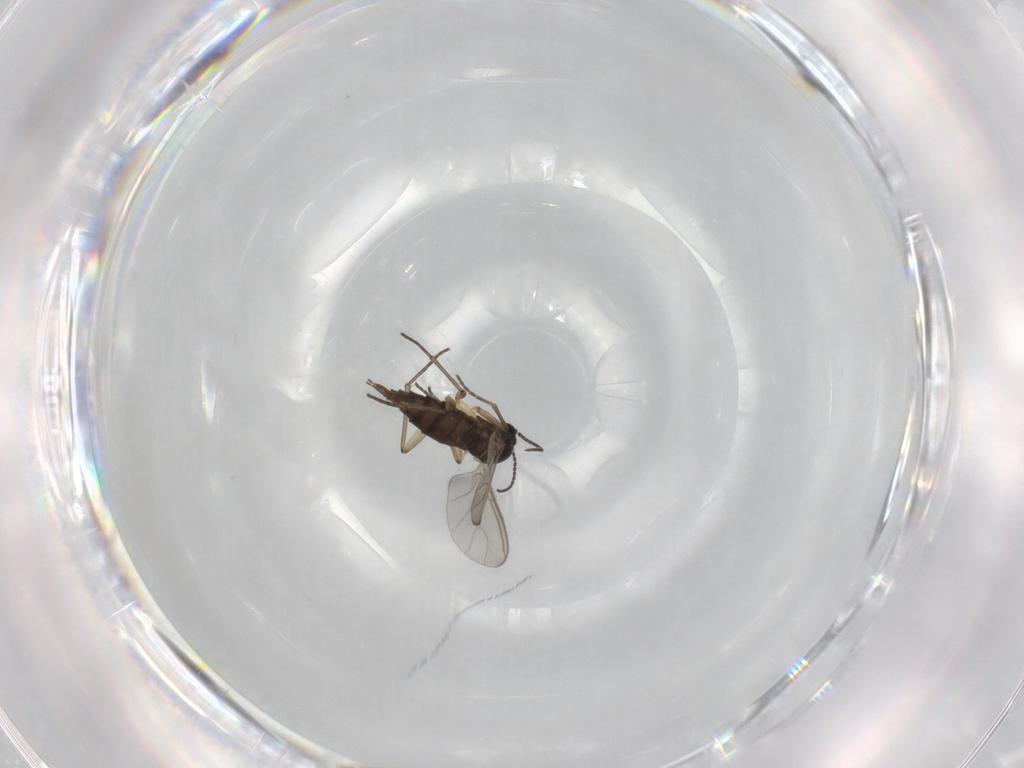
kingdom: Animalia
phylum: Arthropoda
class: Insecta
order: Diptera
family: Sciaridae
